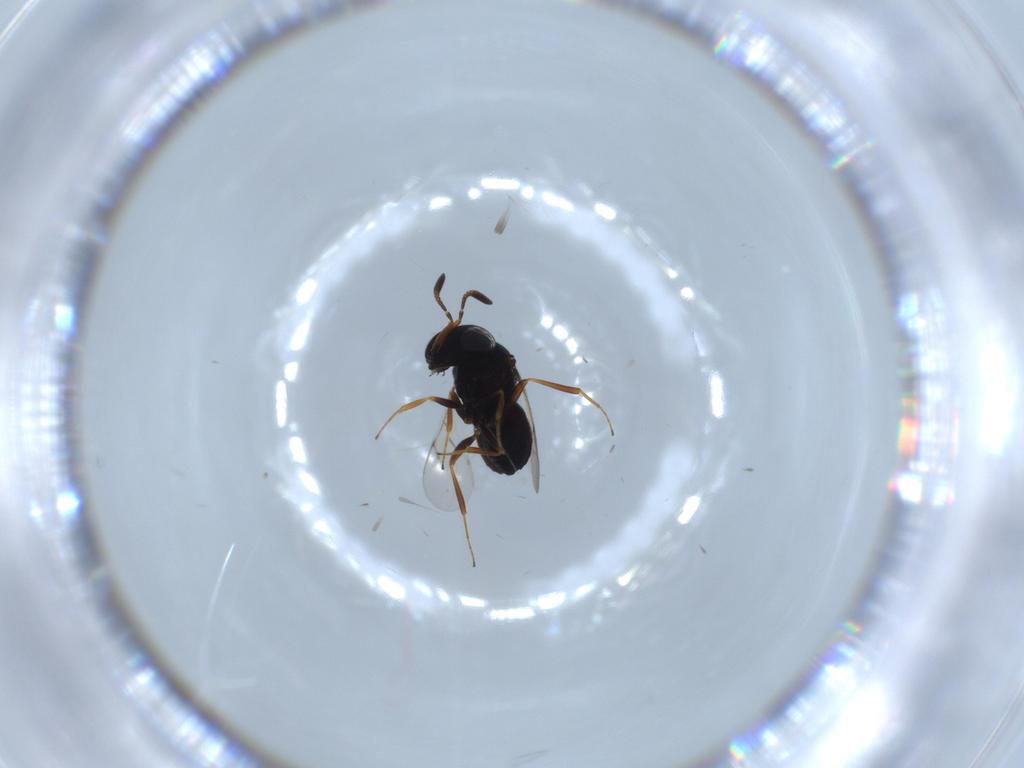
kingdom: Animalia
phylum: Arthropoda
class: Insecta
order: Hymenoptera
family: Scelionidae
